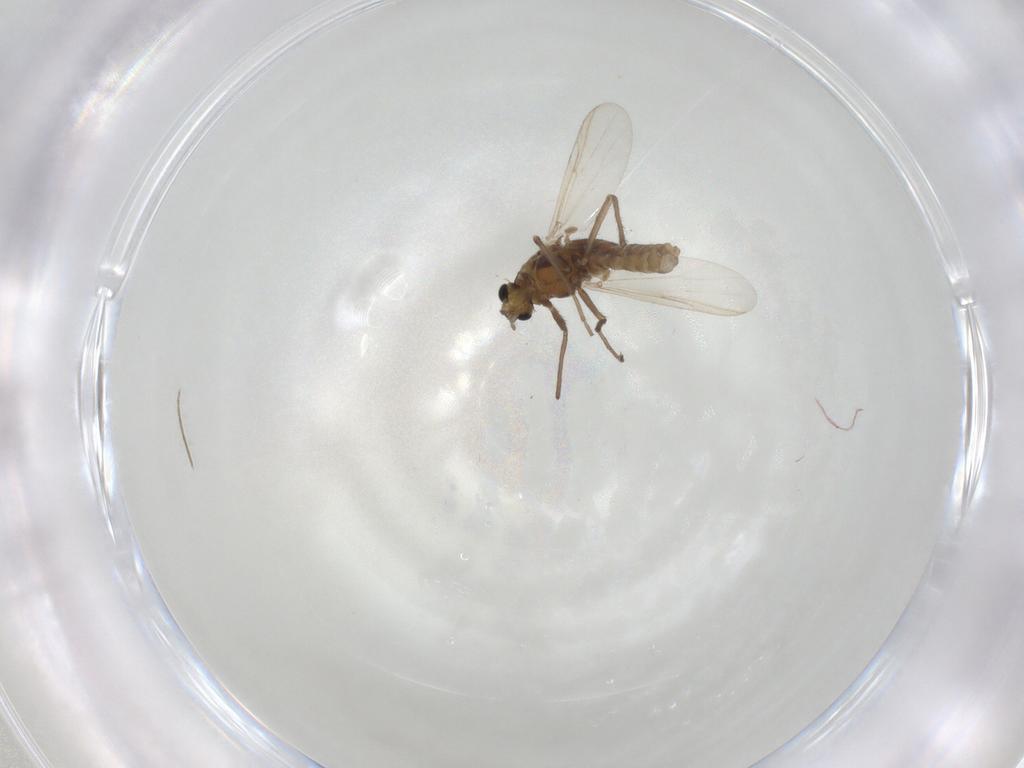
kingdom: Animalia
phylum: Arthropoda
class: Insecta
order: Diptera
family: Chironomidae
